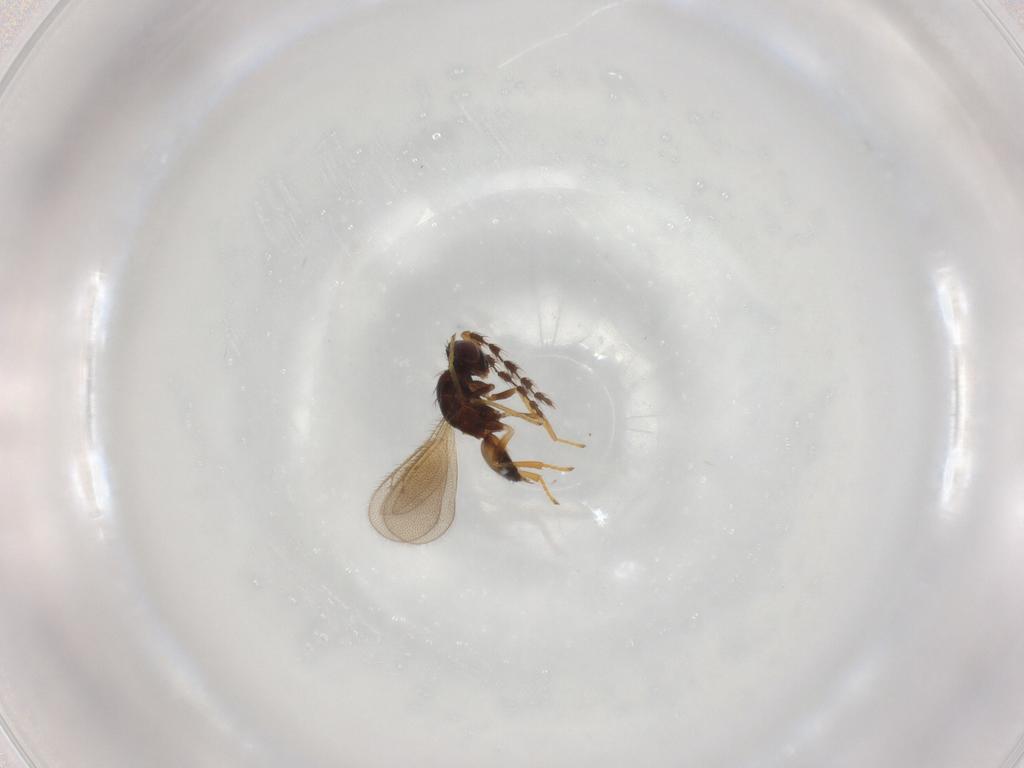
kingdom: Animalia
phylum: Arthropoda
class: Insecta
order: Hymenoptera
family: Eulophidae
